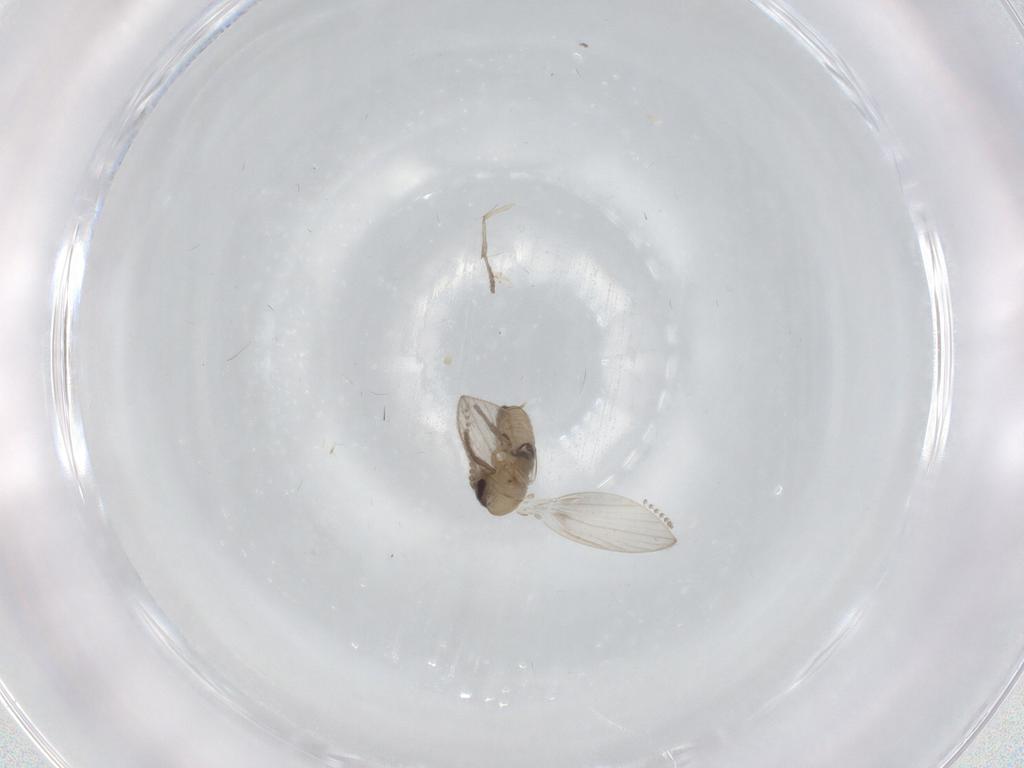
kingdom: Animalia
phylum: Arthropoda
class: Insecta
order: Diptera
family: Psychodidae
